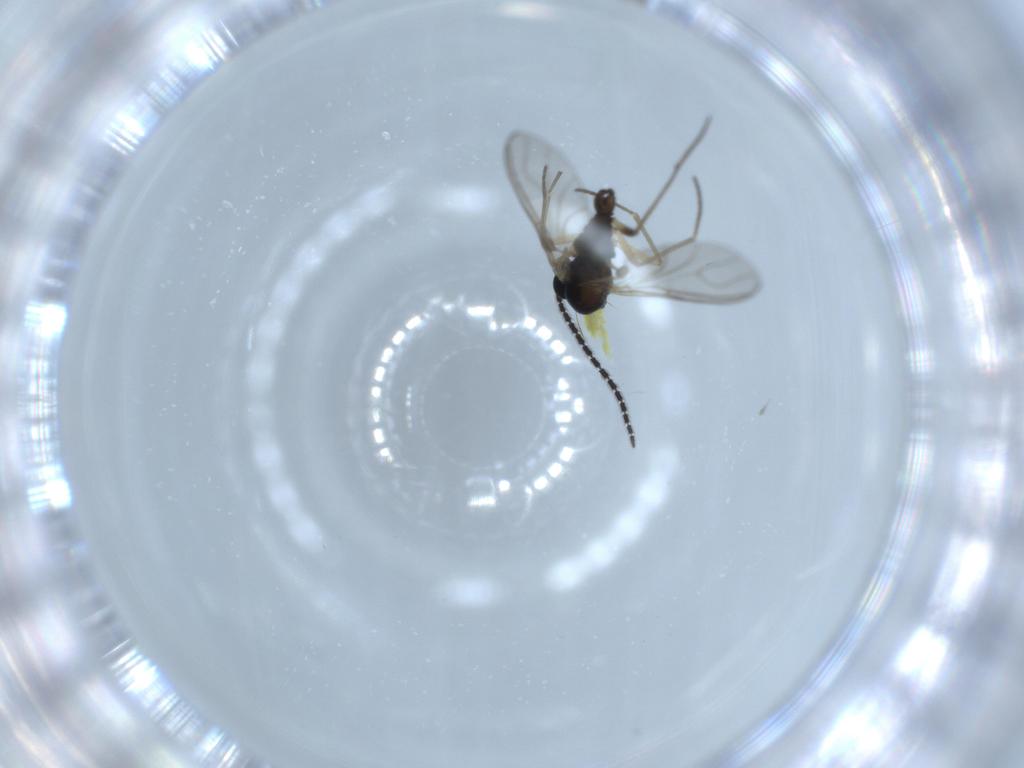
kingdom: Animalia
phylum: Arthropoda
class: Insecta
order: Diptera
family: Sciaridae
